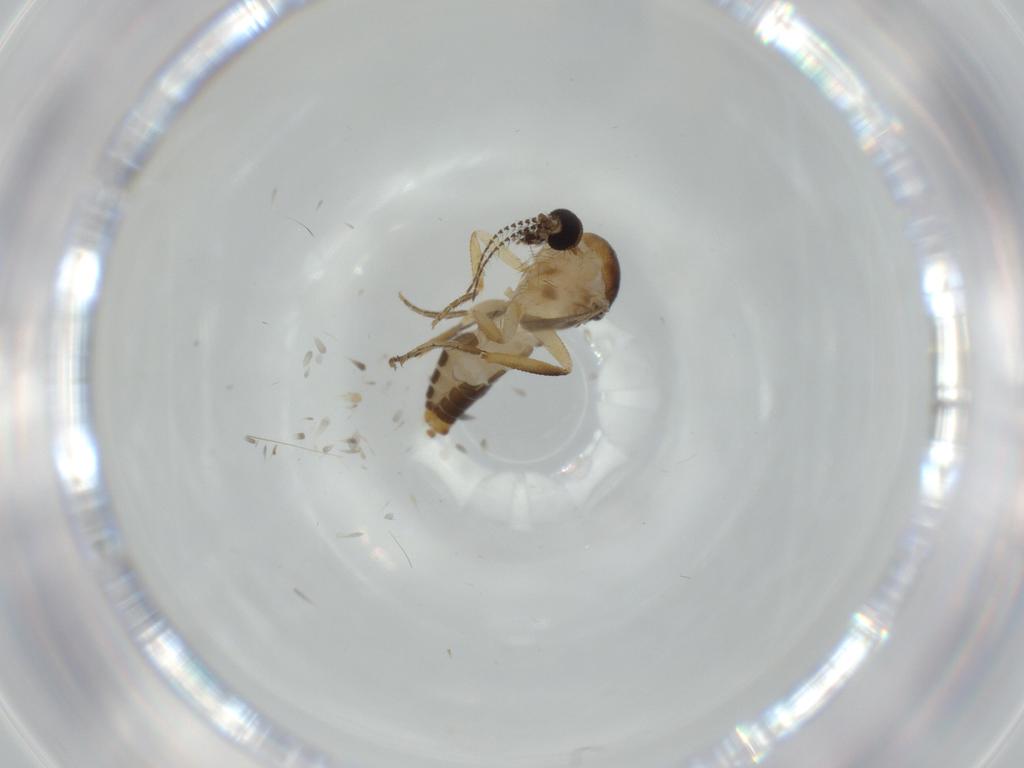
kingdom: Animalia
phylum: Arthropoda
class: Insecta
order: Diptera
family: Ceratopogonidae
